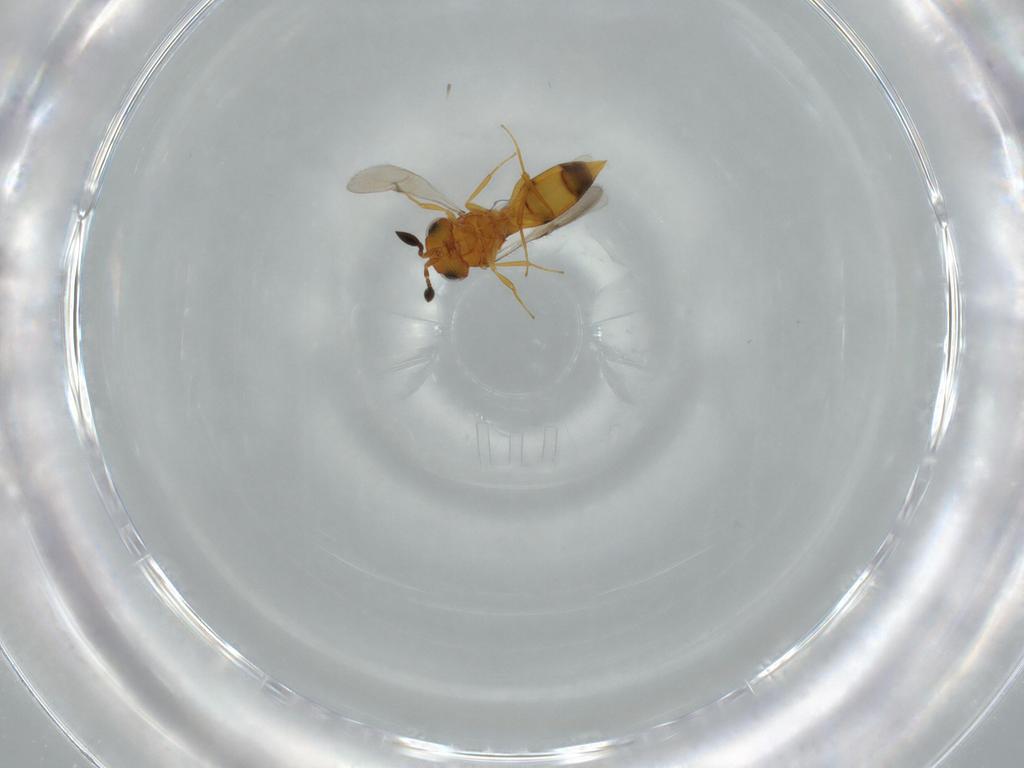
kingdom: Animalia
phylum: Arthropoda
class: Insecta
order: Hymenoptera
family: Scelionidae
